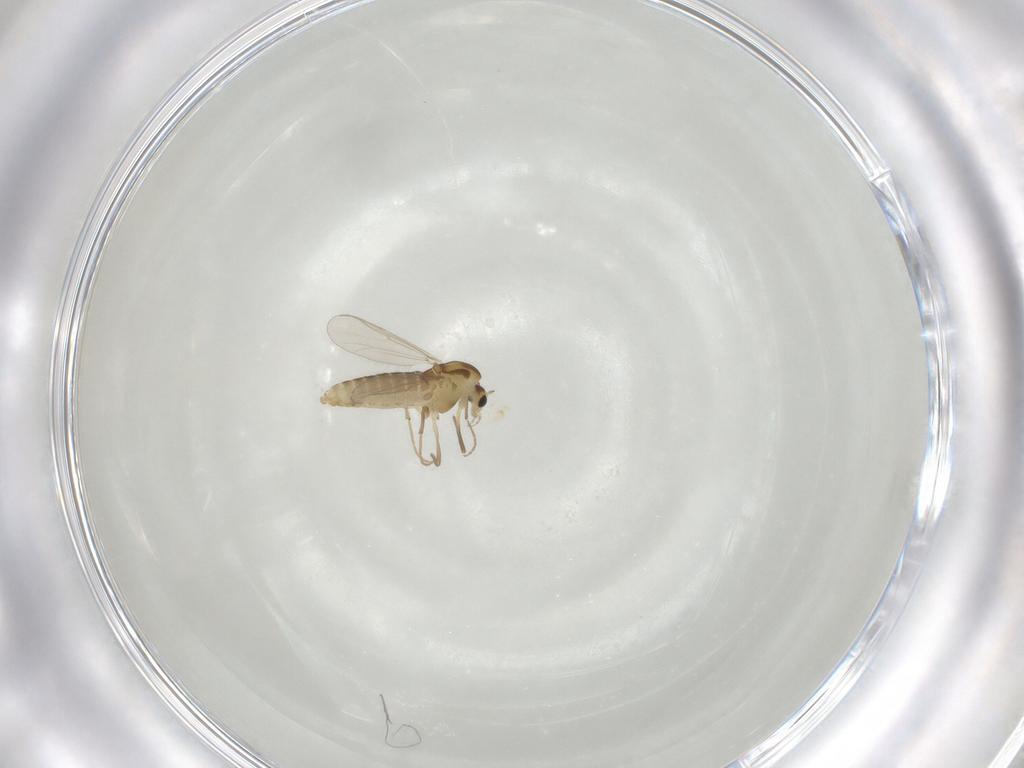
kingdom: Animalia
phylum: Arthropoda
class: Insecta
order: Diptera
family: Chironomidae
